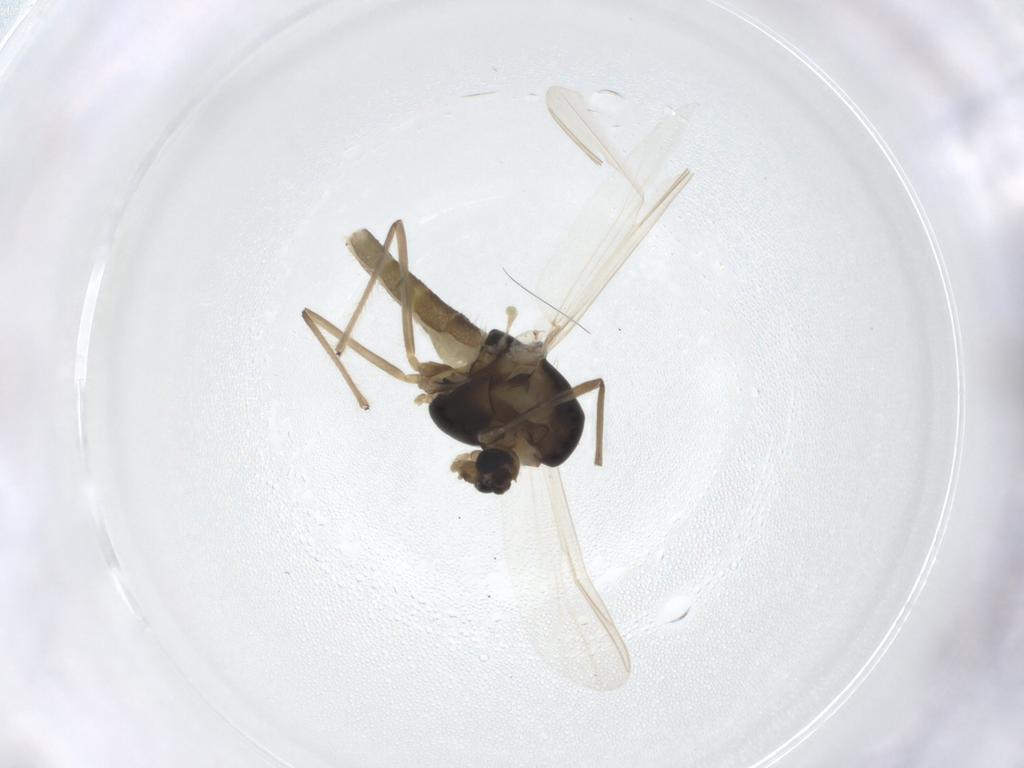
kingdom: Animalia
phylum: Arthropoda
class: Insecta
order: Diptera
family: Chironomidae
